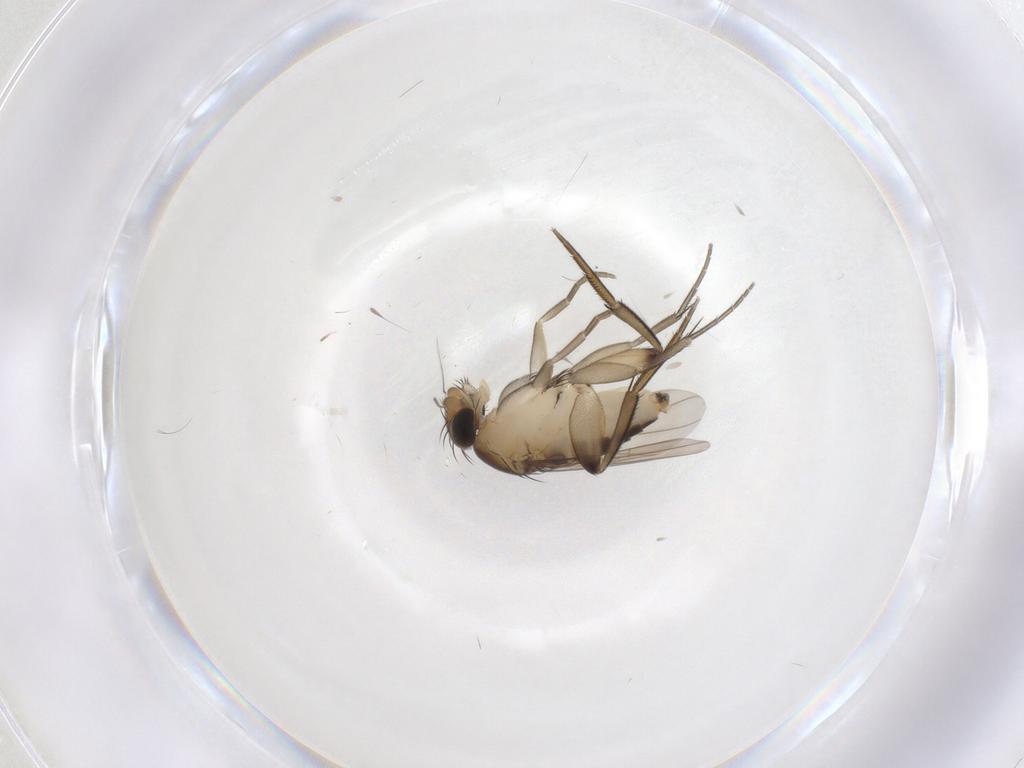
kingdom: Animalia
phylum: Arthropoda
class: Insecta
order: Diptera
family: Phoridae
